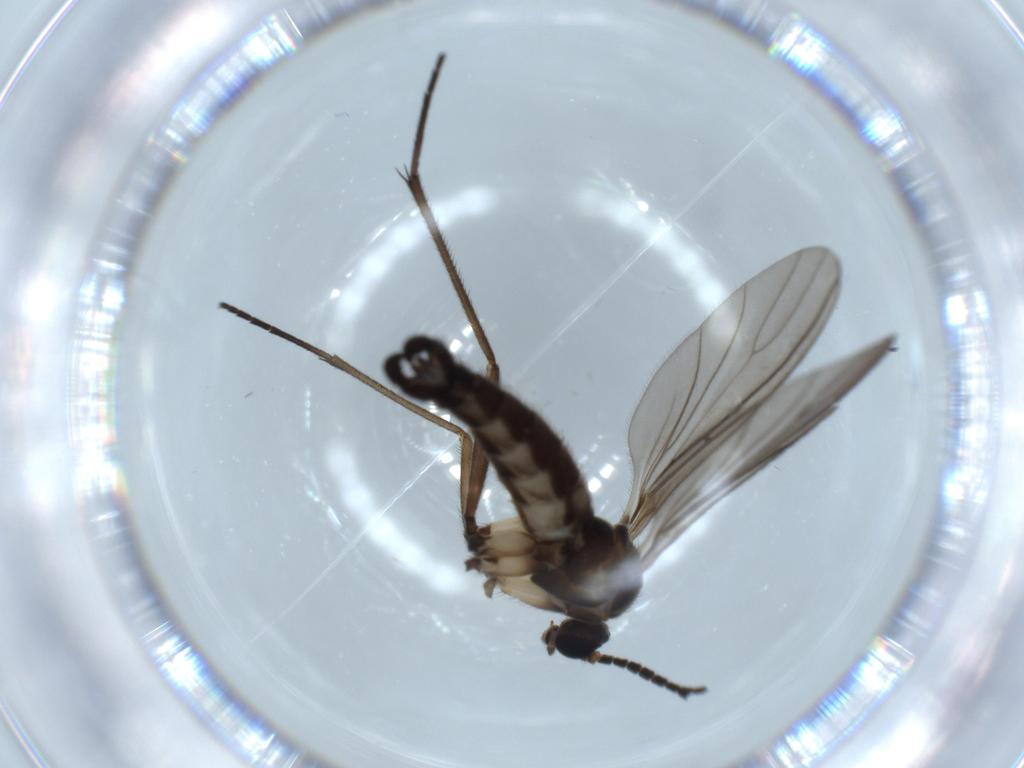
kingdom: Animalia
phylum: Arthropoda
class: Insecta
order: Diptera
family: Sciaridae
